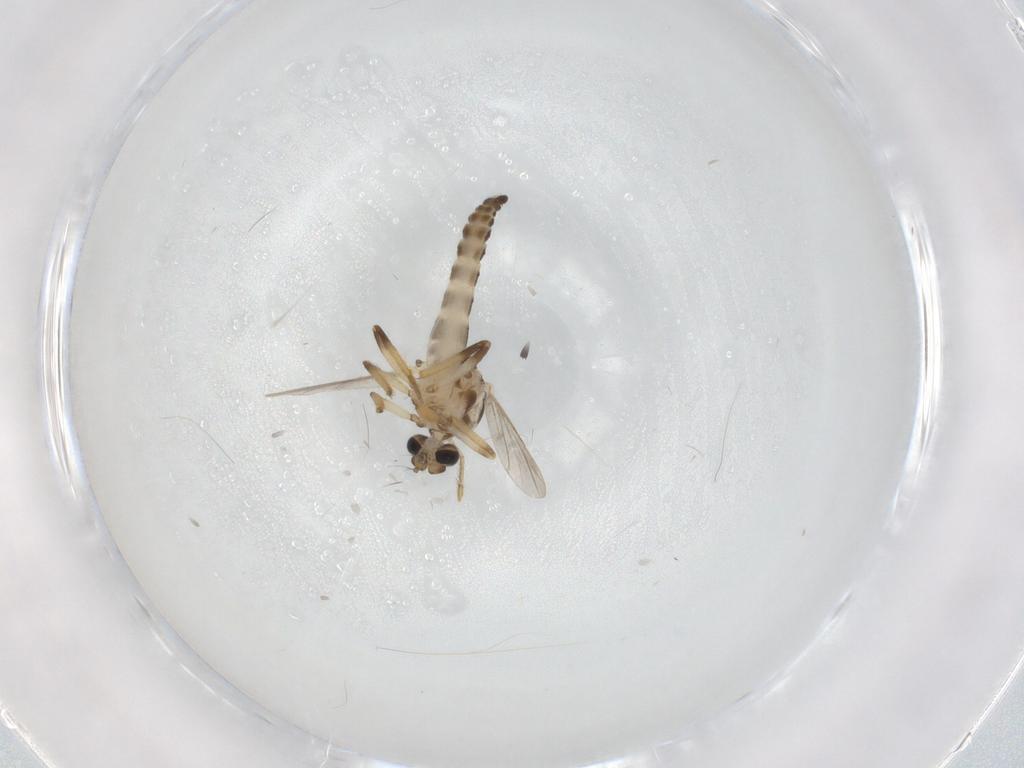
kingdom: Animalia
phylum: Arthropoda
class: Insecta
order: Diptera
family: Ceratopogonidae
